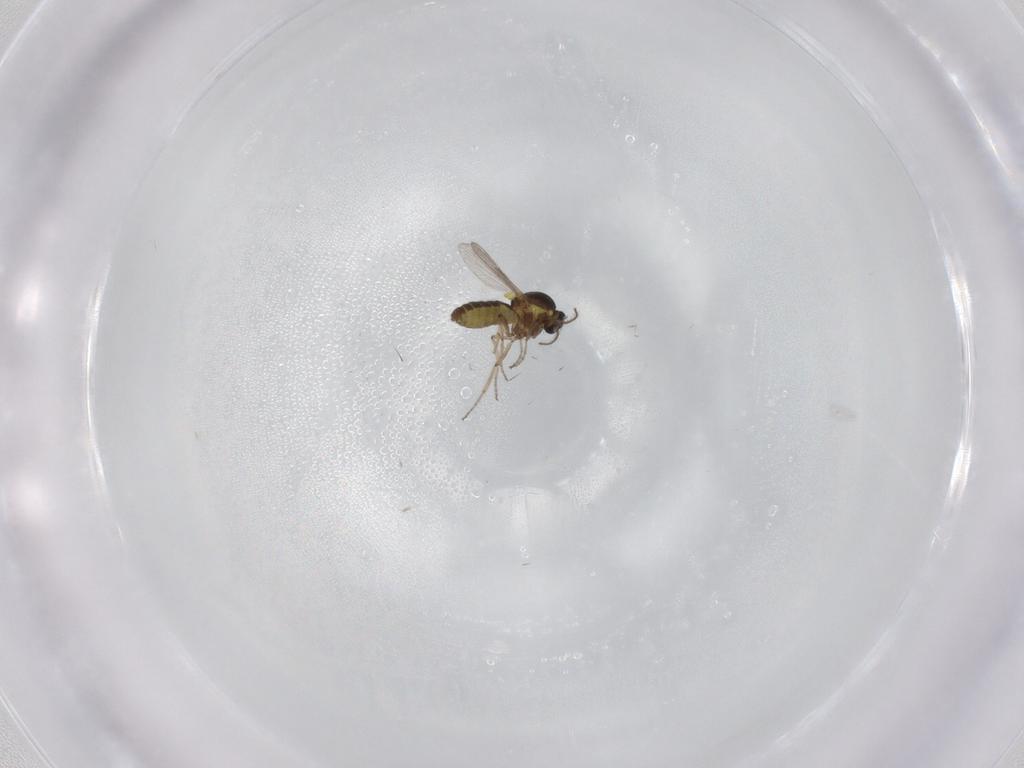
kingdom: Animalia
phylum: Arthropoda
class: Insecta
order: Diptera
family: Ceratopogonidae
